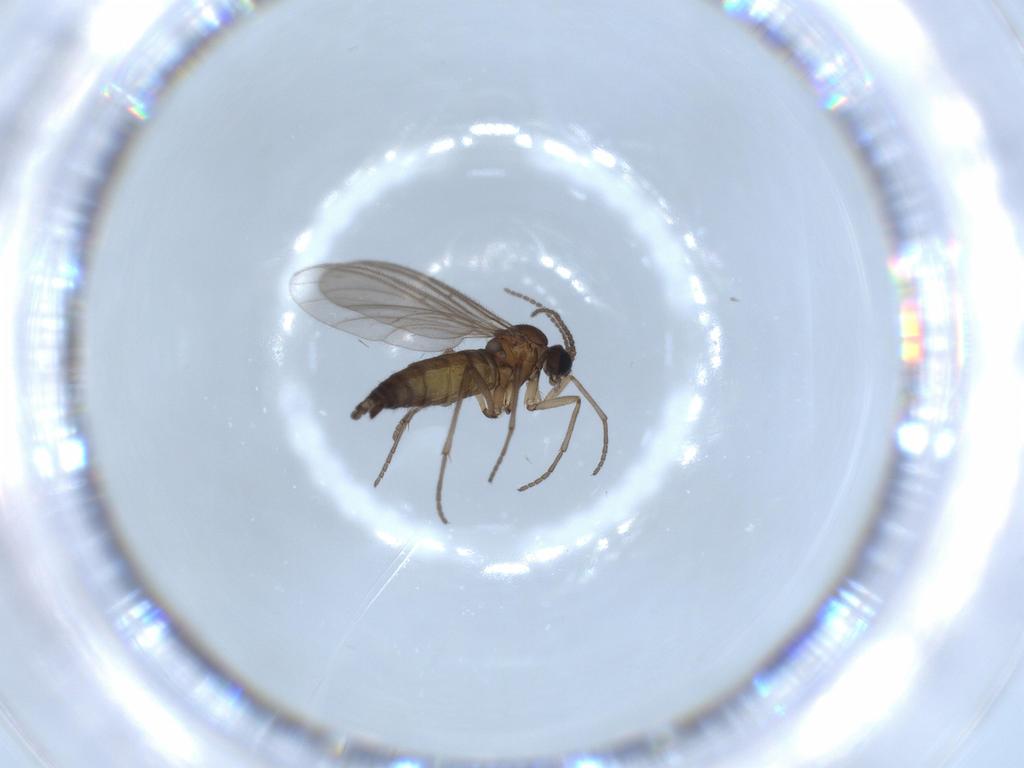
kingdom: Animalia
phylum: Arthropoda
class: Insecta
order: Diptera
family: Sciaridae
